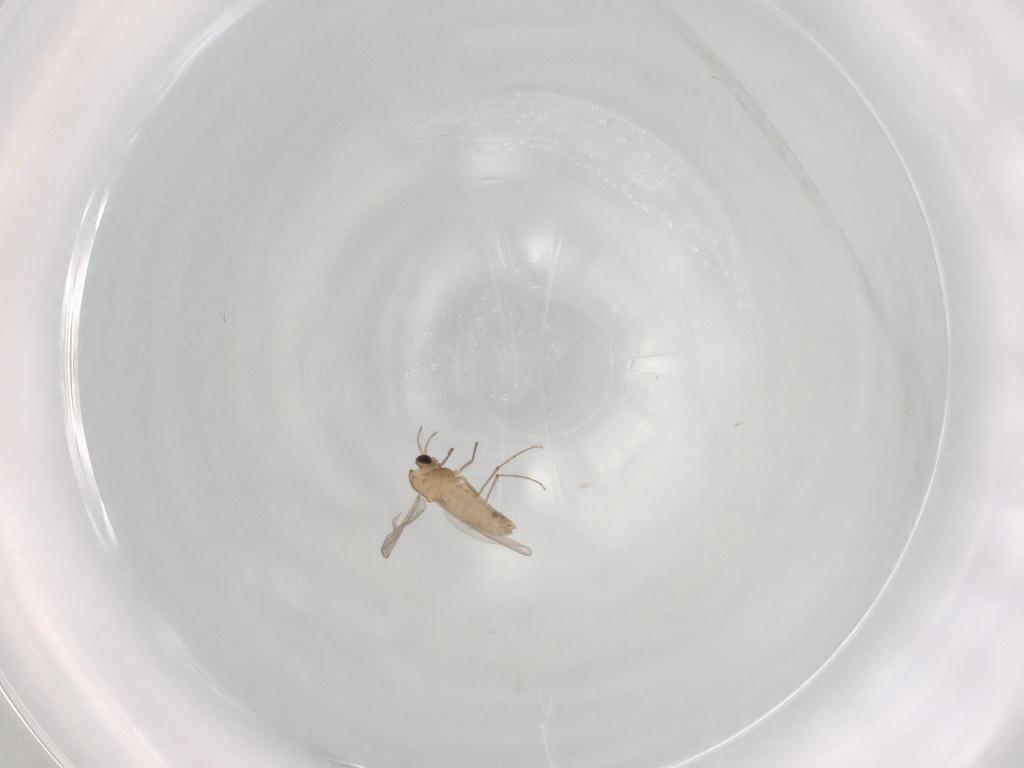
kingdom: Animalia
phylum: Arthropoda
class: Insecta
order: Diptera
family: Chironomidae
